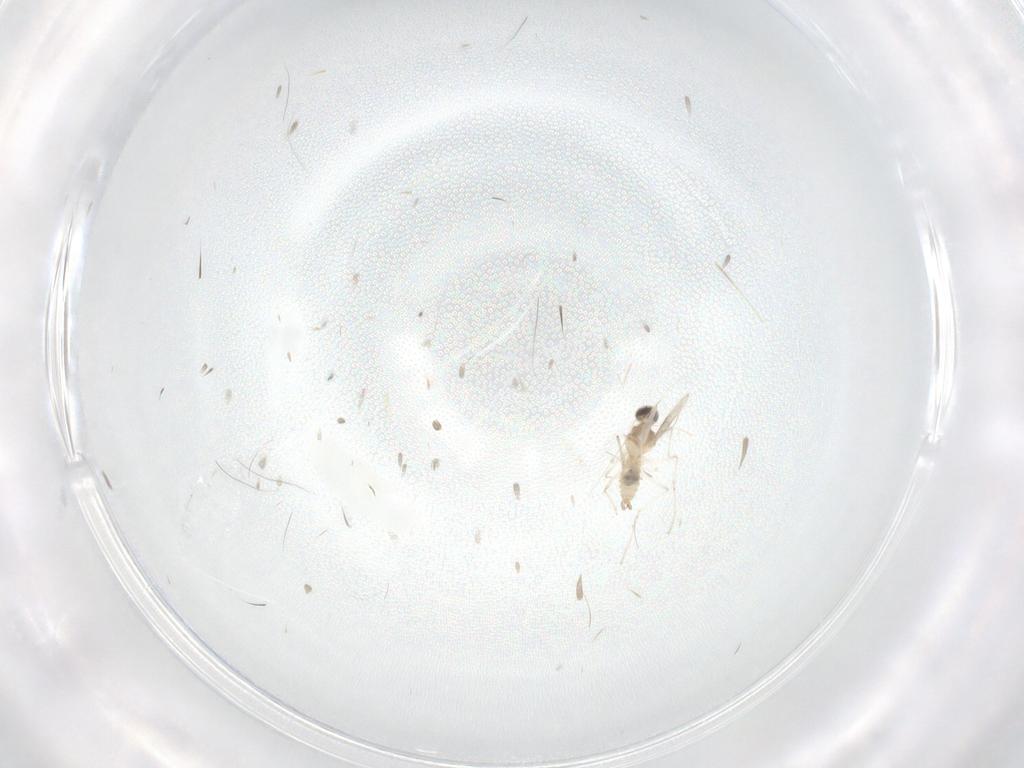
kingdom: Animalia
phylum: Arthropoda
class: Insecta
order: Diptera
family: Cecidomyiidae
